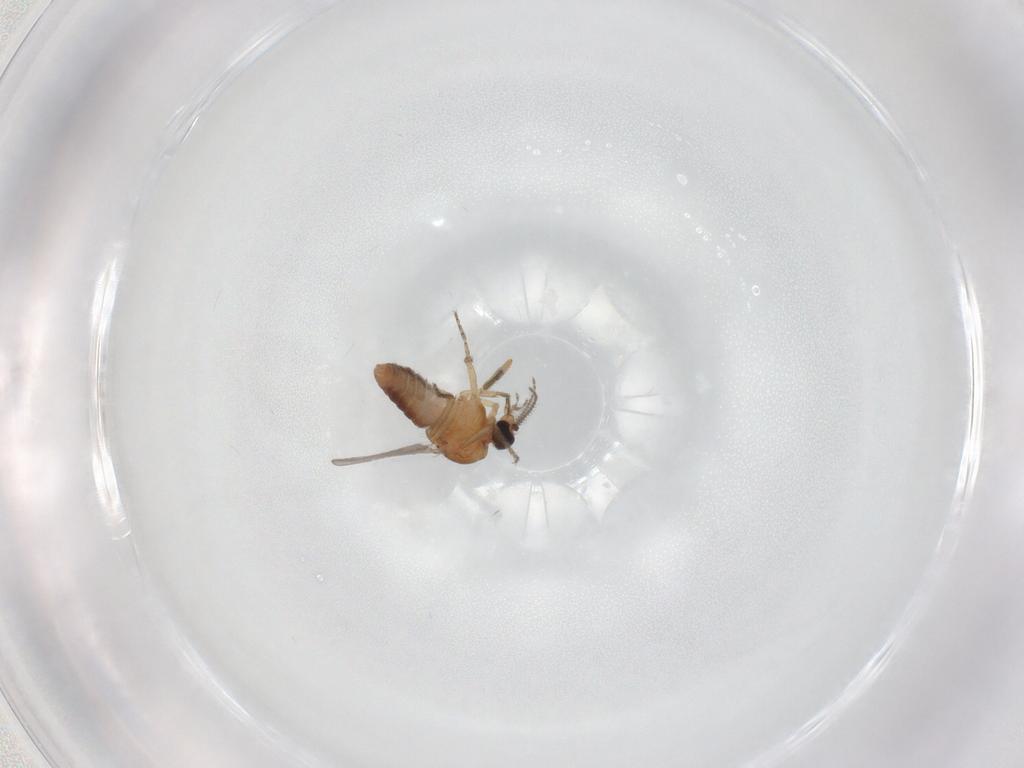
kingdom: Animalia
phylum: Arthropoda
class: Insecta
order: Diptera
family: Ceratopogonidae
